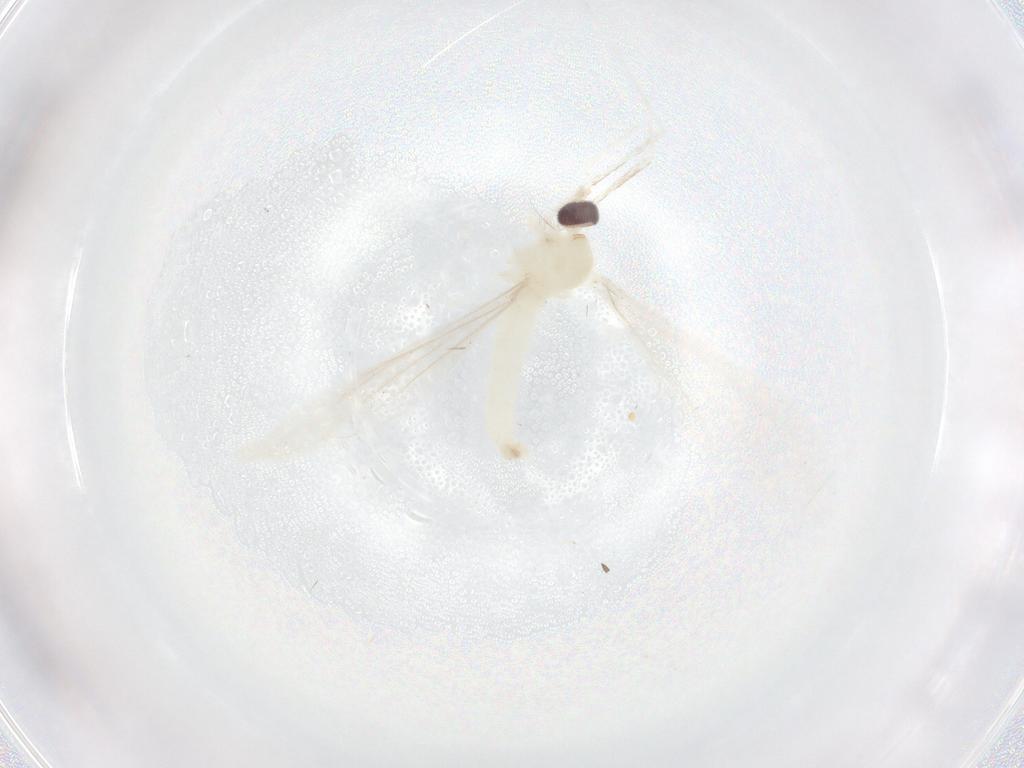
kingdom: Animalia
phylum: Arthropoda
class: Insecta
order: Diptera
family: Cecidomyiidae
